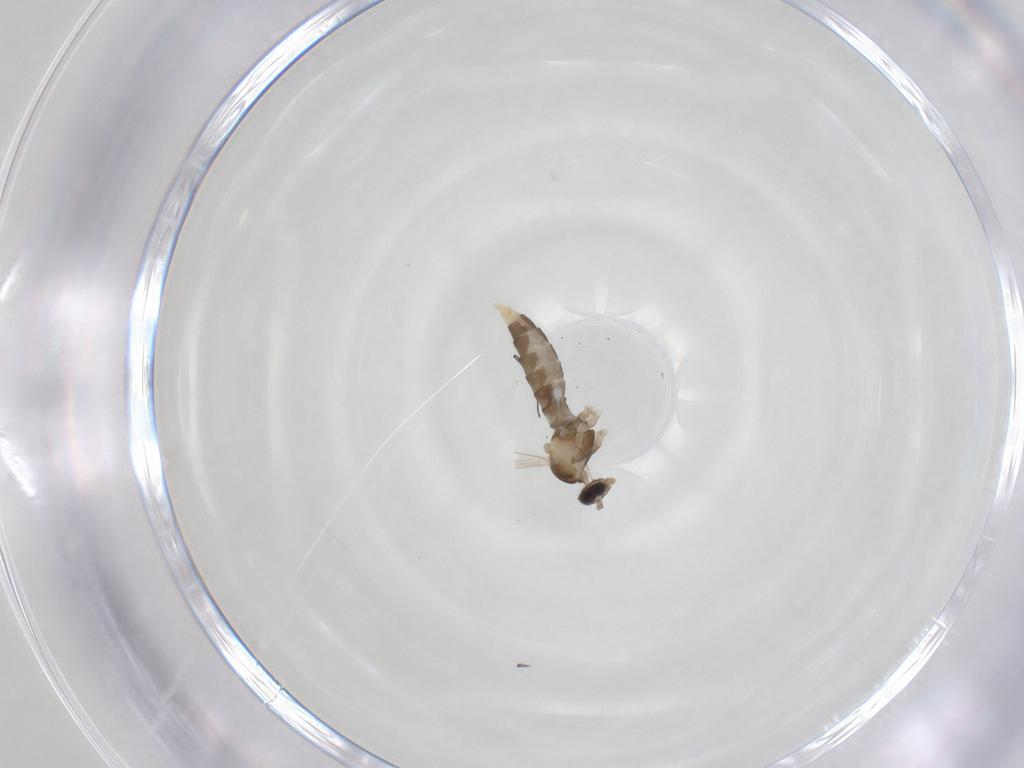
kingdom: Animalia
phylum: Arthropoda
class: Insecta
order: Diptera
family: Cecidomyiidae
